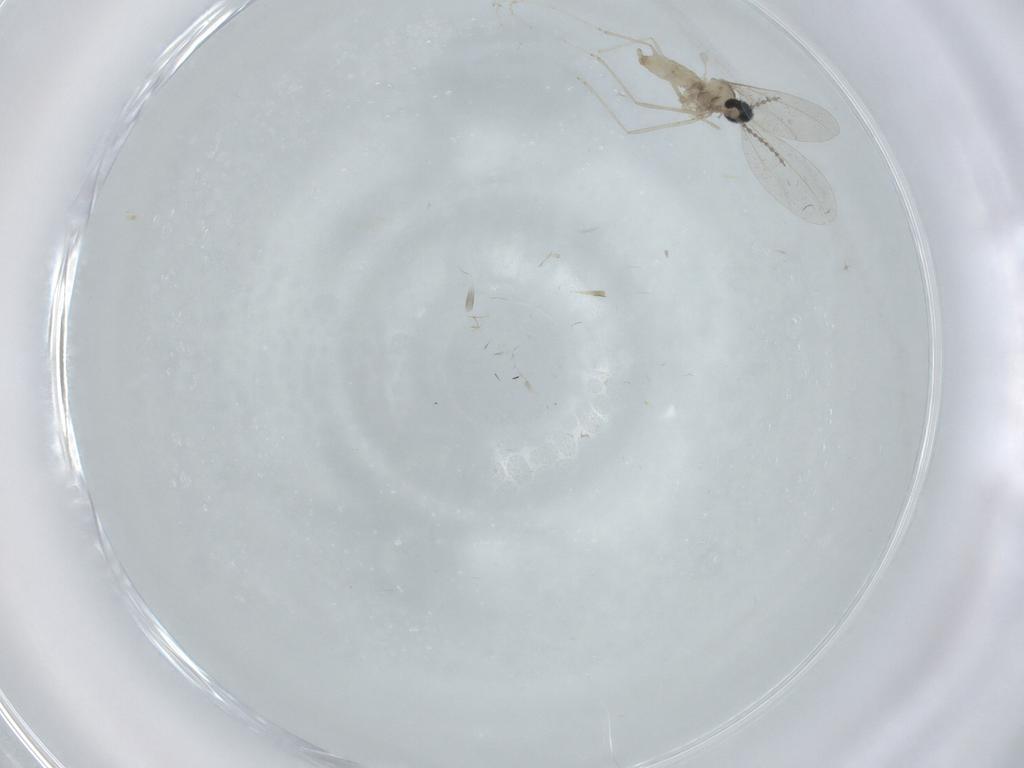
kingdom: Animalia
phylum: Arthropoda
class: Insecta
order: Diptera
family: Cecidomyiidae
